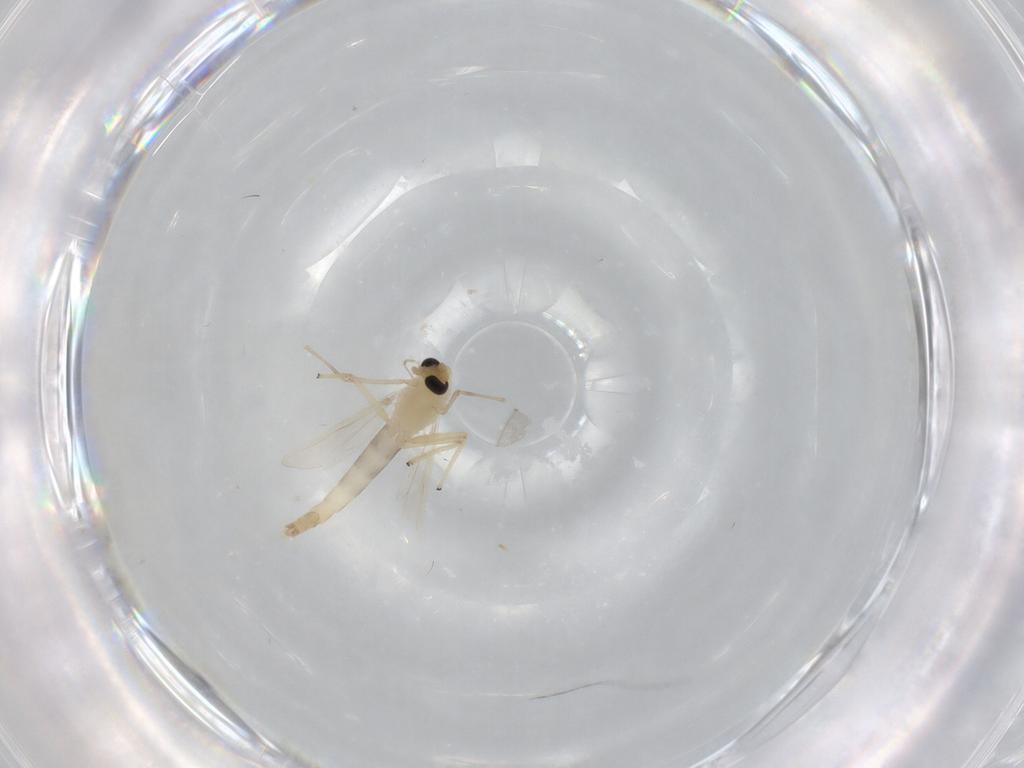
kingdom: Animalia
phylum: Arthropoda
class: Insecta
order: Diptera
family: Chironomidae
